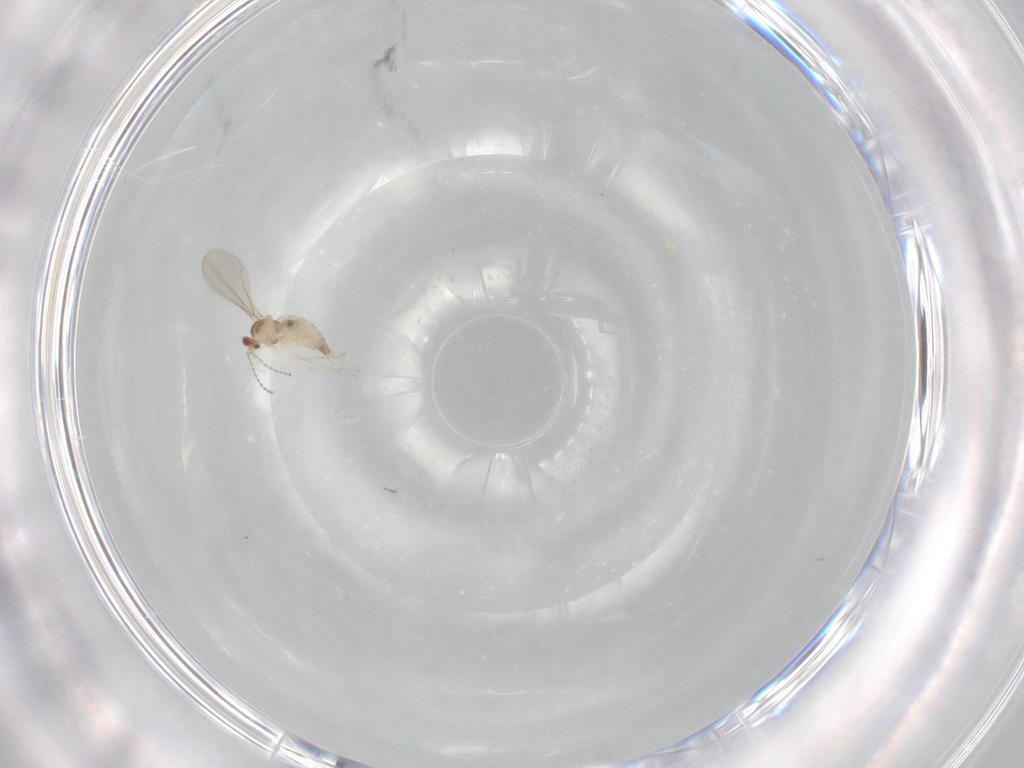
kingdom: Animalia
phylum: Arthropoda
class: Insecta
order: Diptera
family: Cecidomyiidae
